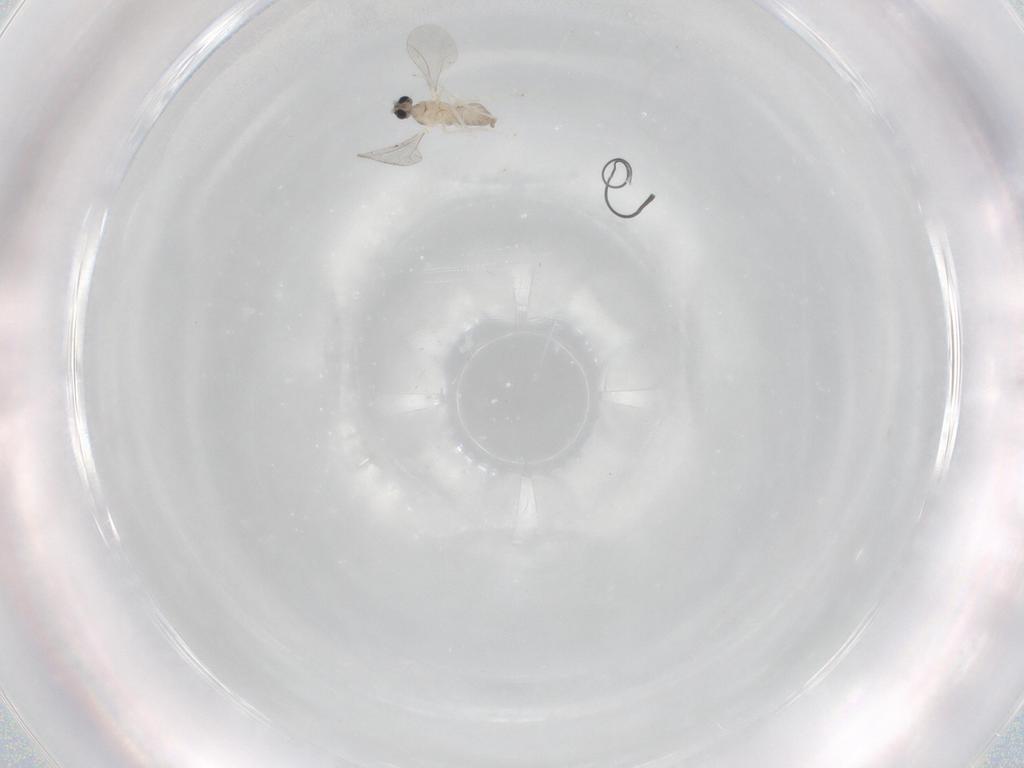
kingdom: Animalia
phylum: Arthropoda
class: Insecta
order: Diptera
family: Cecidomyiidae
